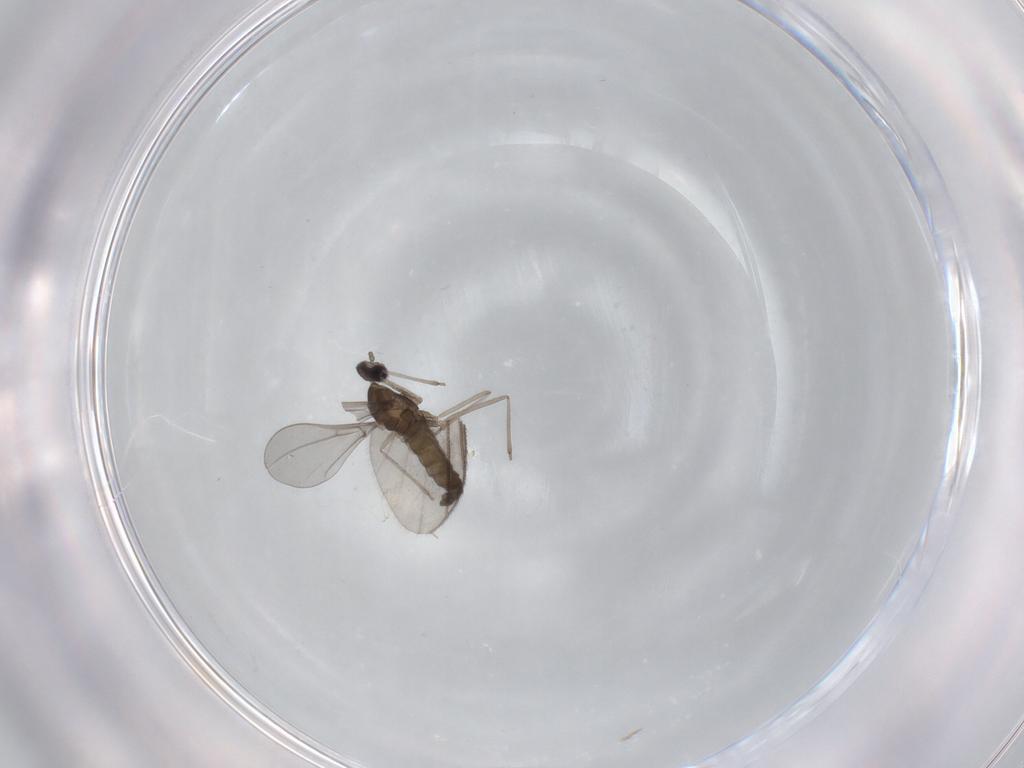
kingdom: Animalia
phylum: Arthropoda
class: Insecta
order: Diptera
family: Cecidomyiidae
